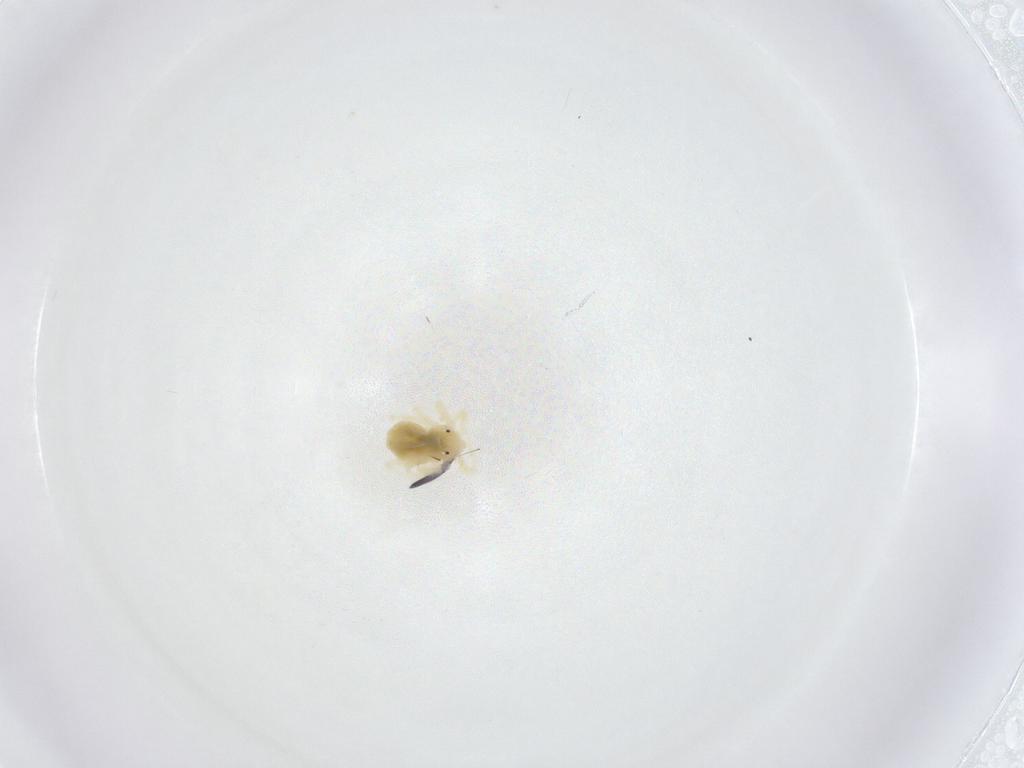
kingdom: Animalia
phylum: Arthropoda
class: Arachnida
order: Trombidiformes
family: Anystidae
